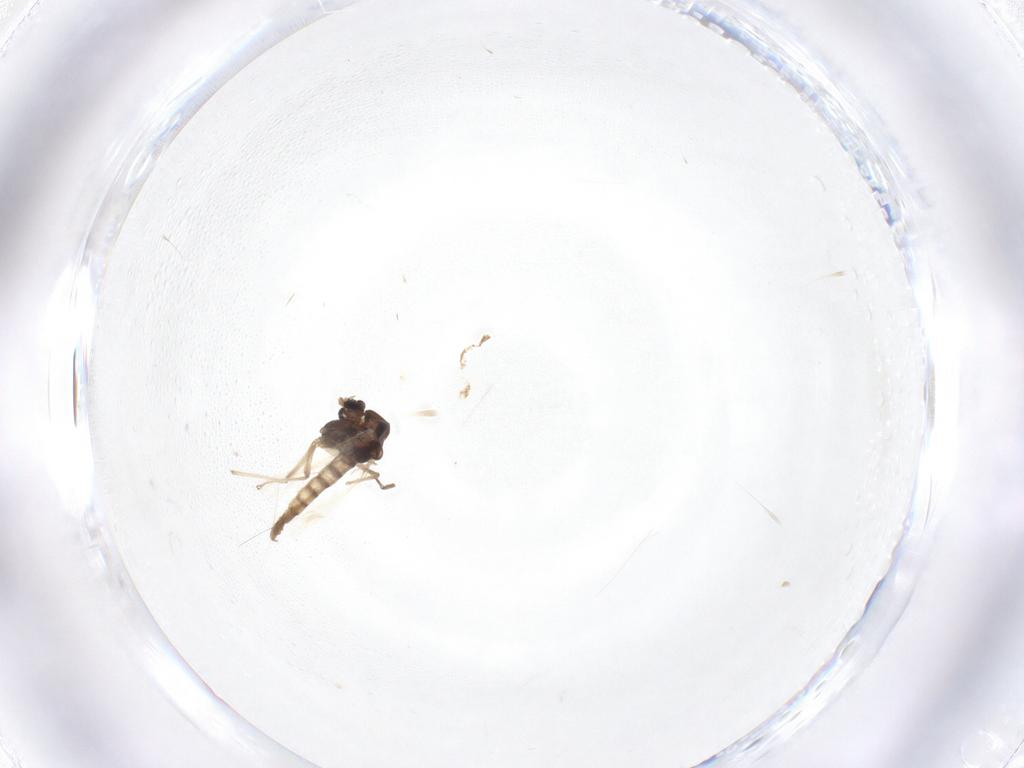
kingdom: Animalia
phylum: Arthropoda
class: Insecta
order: Diptera
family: Chironomidae
